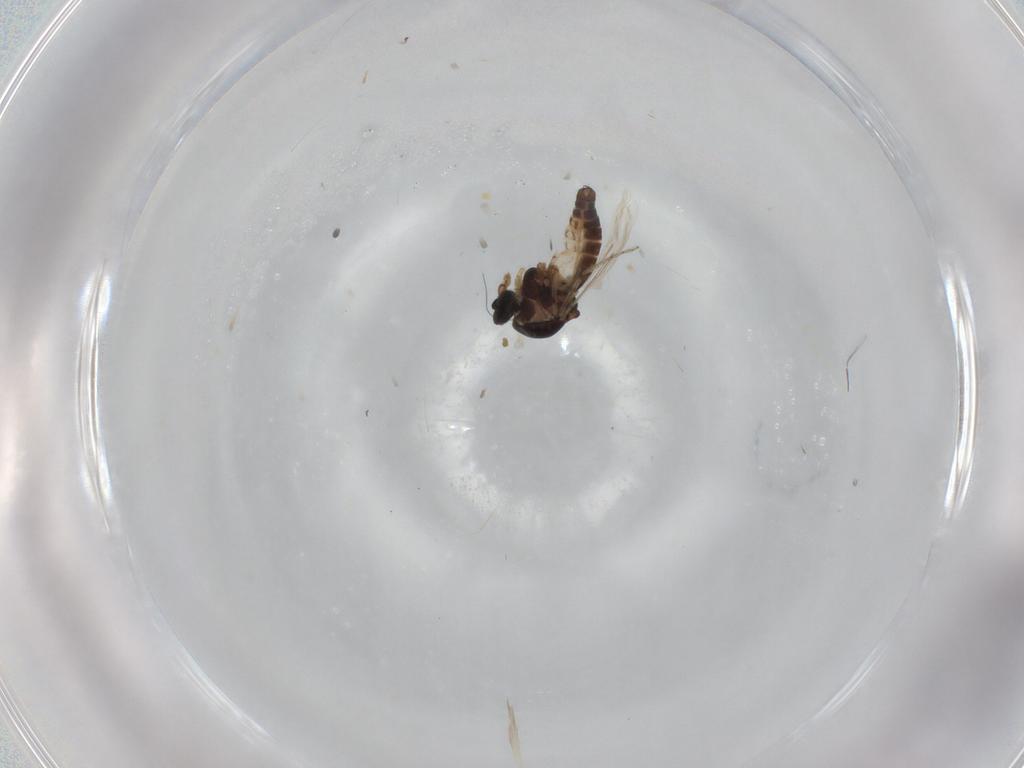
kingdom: Animalia
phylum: Arthropoda
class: Insecta
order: Diptera
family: Ceratopogonidae
